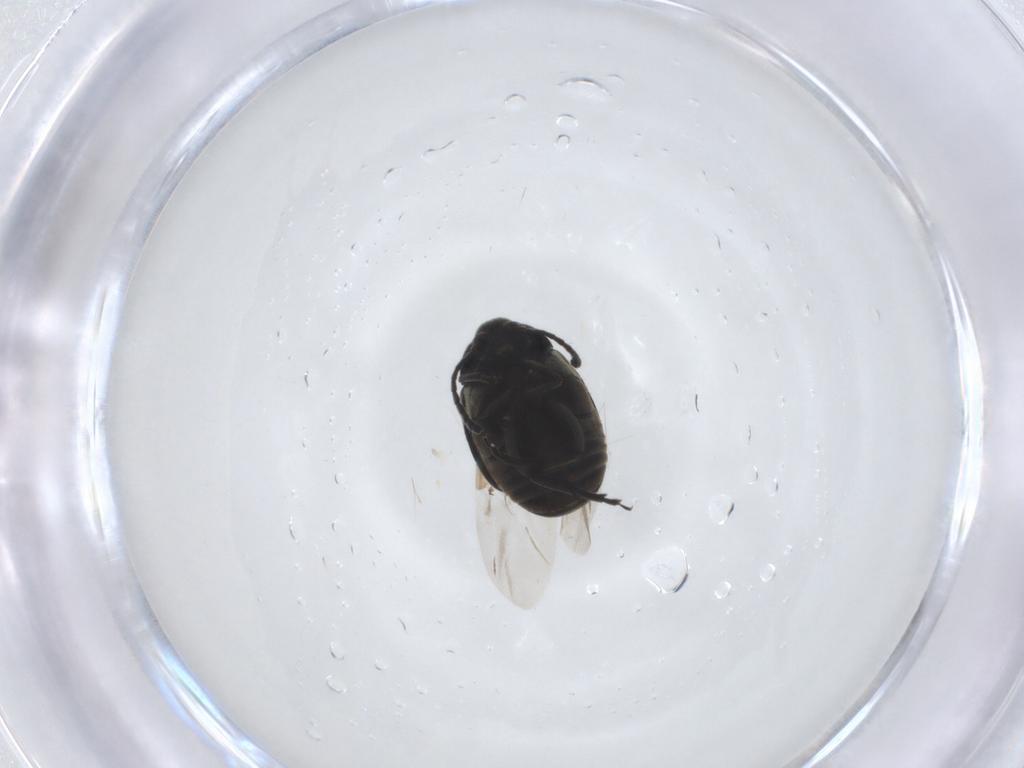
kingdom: Animalia
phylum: Arthropoda
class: Insecta
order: Coleoptera
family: Chrysomelidae
